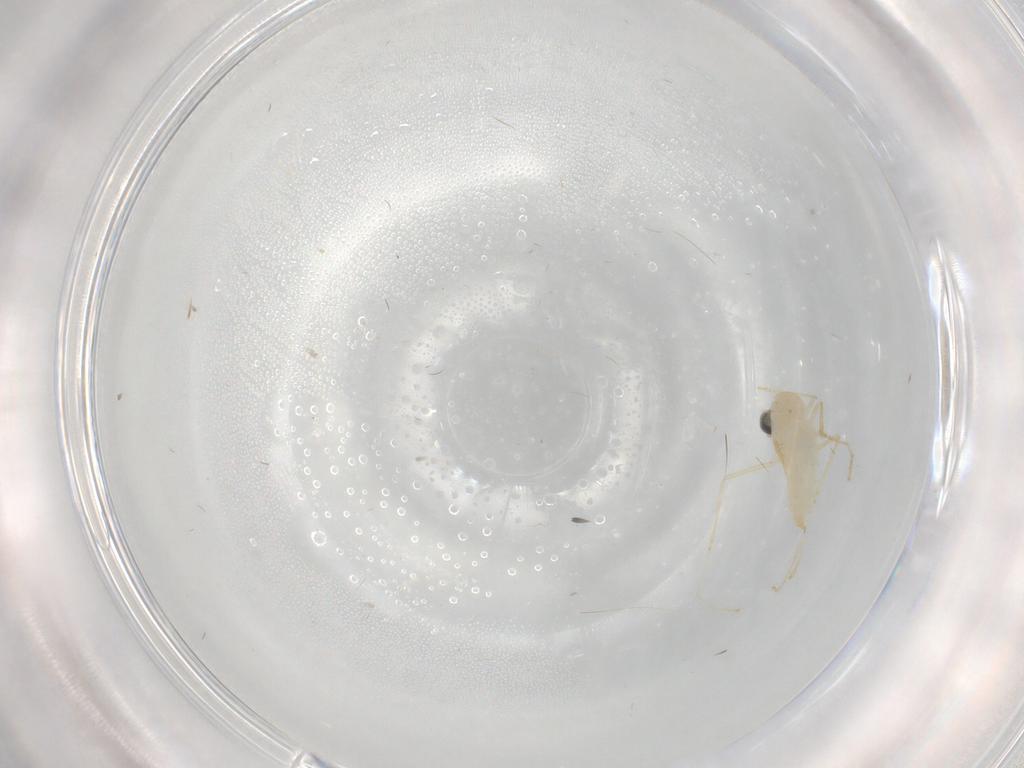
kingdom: Animalia
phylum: Arthropoda
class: Insecta
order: Diptera
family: Cecidomyiidae
